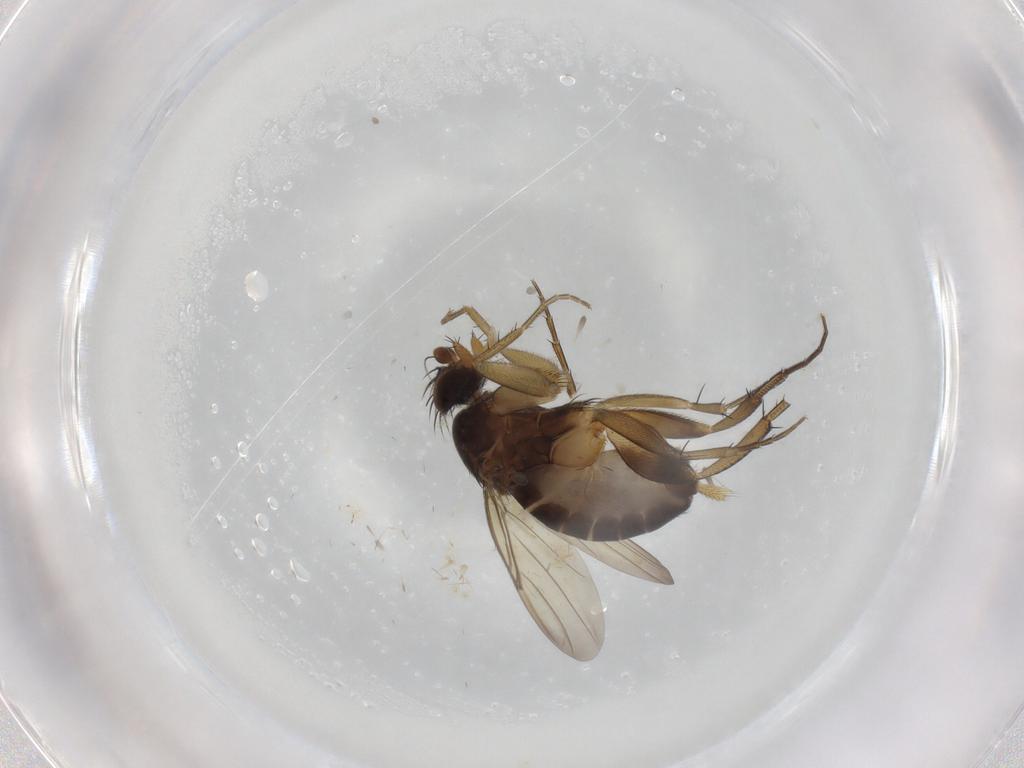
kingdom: Animalia
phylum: Arthropoda
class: Insecta
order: Diptera
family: Phoridae
